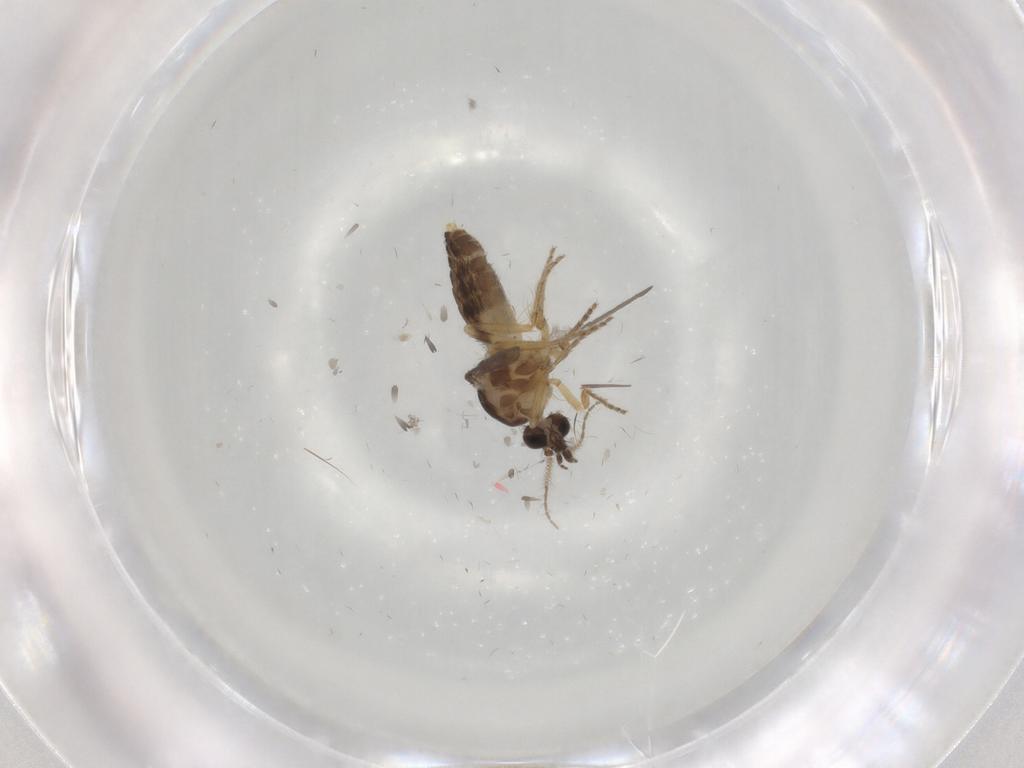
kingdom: Animalia
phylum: Arthropoda
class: Insecta
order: Diptera
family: Ceratopogonidae
